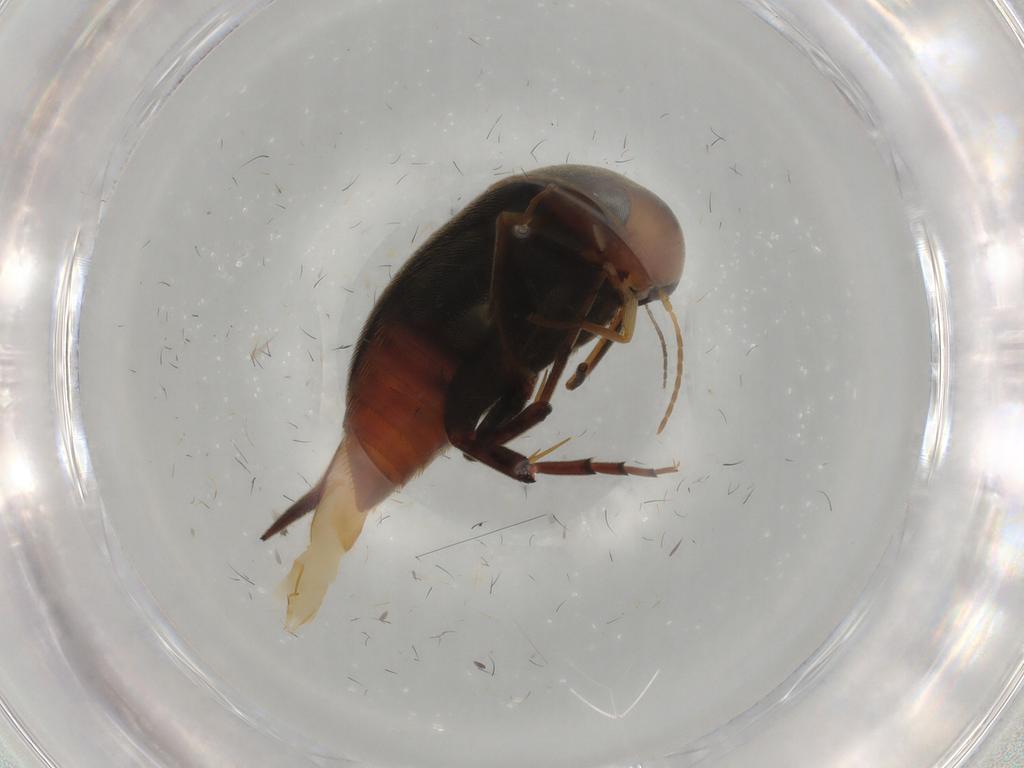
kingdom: Animalia
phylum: Arthropoda
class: Insecta
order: Coleoptera
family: Mordellidae
